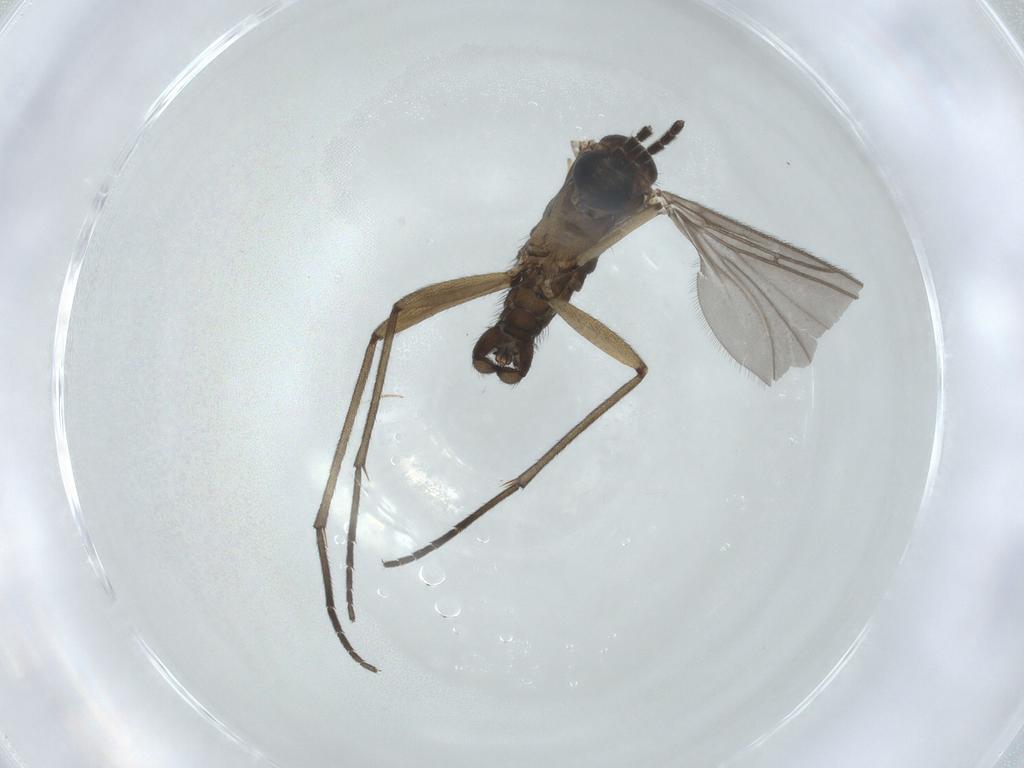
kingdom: Animalia
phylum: Arthropoda
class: Insecta
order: Diptera
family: Sciaridae
